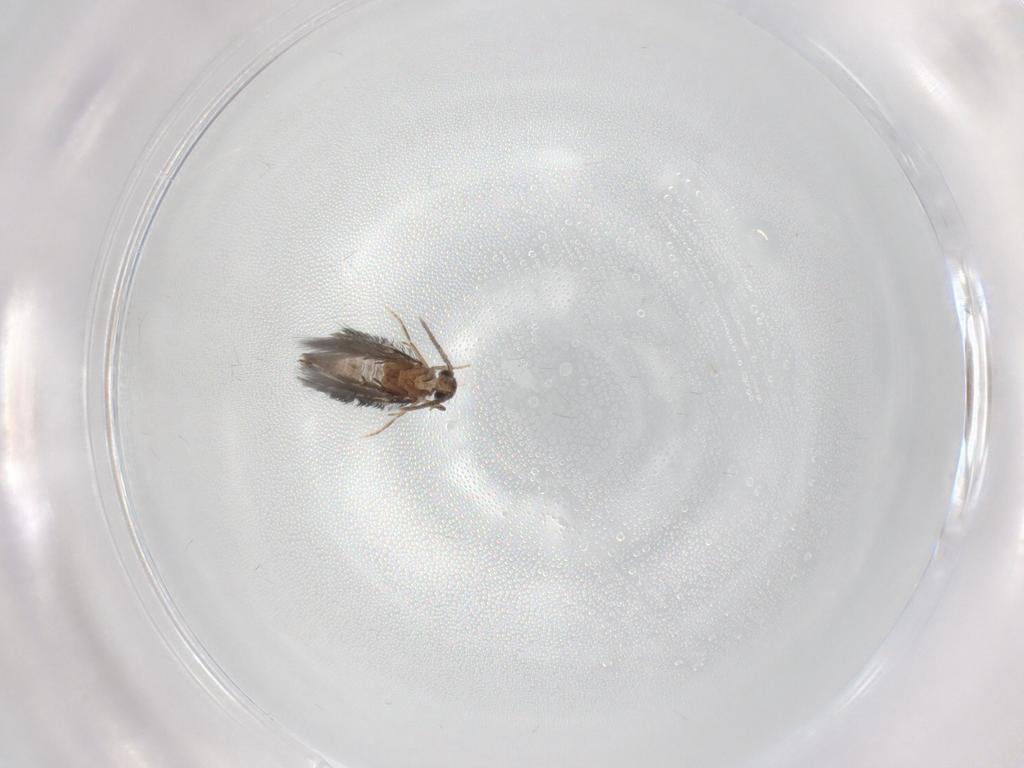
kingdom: Animalia
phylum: Arthropoda
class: Insecta
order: Trichoptera
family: Hydroptilidae
